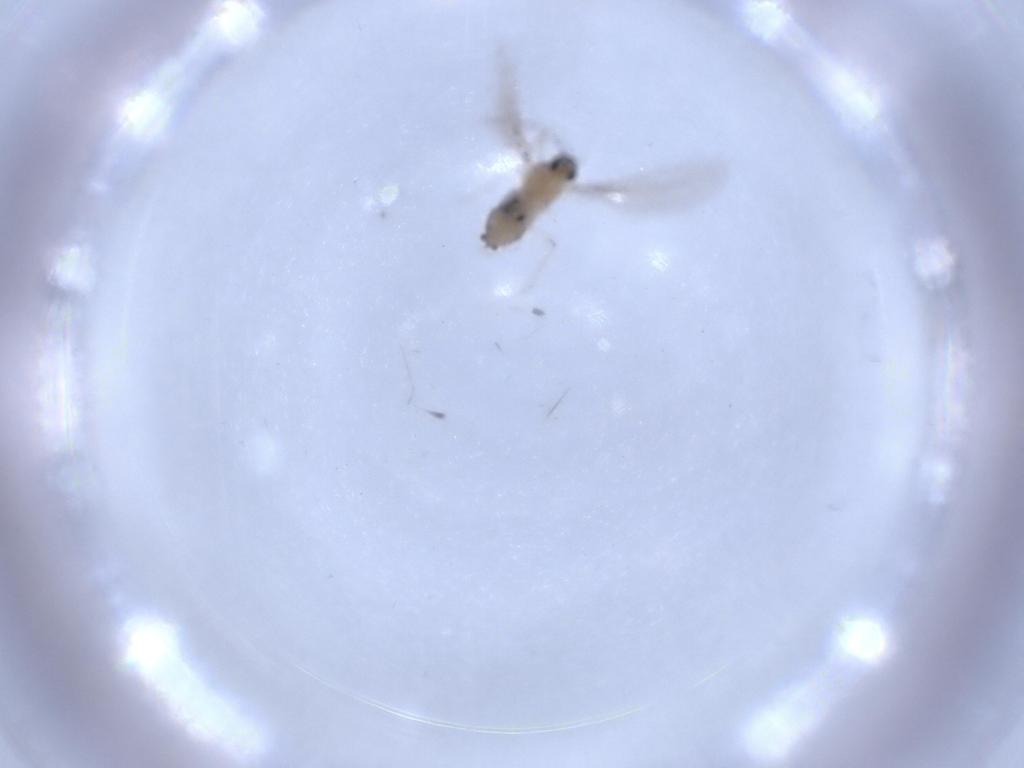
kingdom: Animalia
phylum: Arthropoda
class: Insecta
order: Diptera
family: Cecidomyiidae
